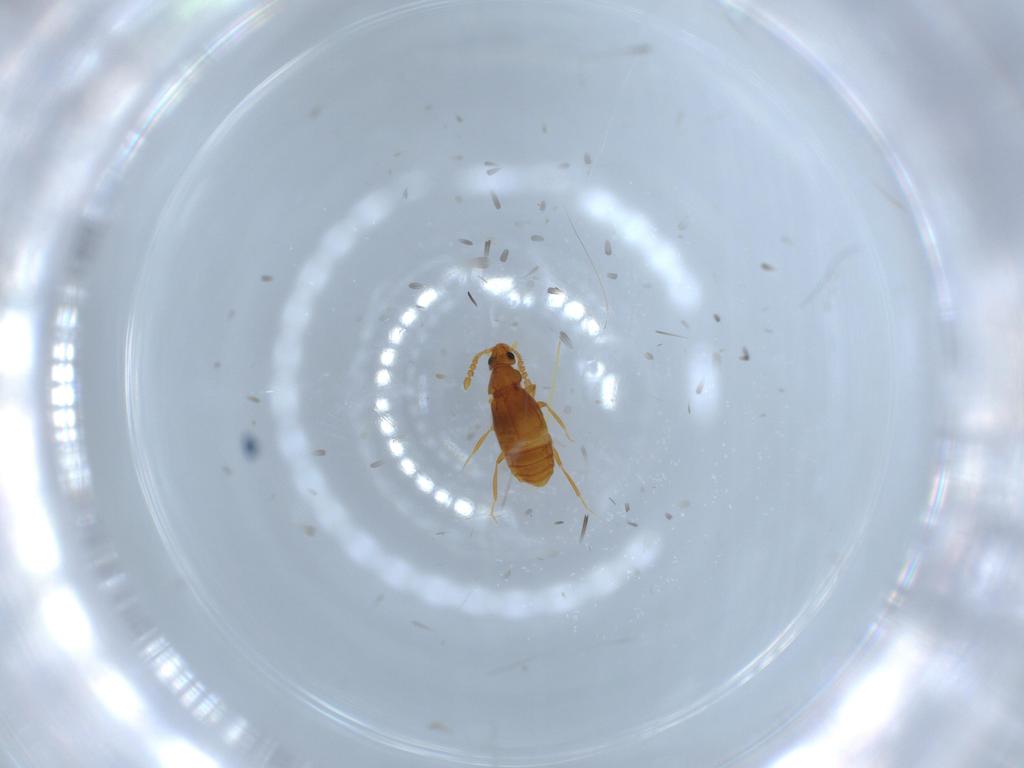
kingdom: Animalia
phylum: Arthropoda
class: Insecta
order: Coleoptera
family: Staphylinidae
